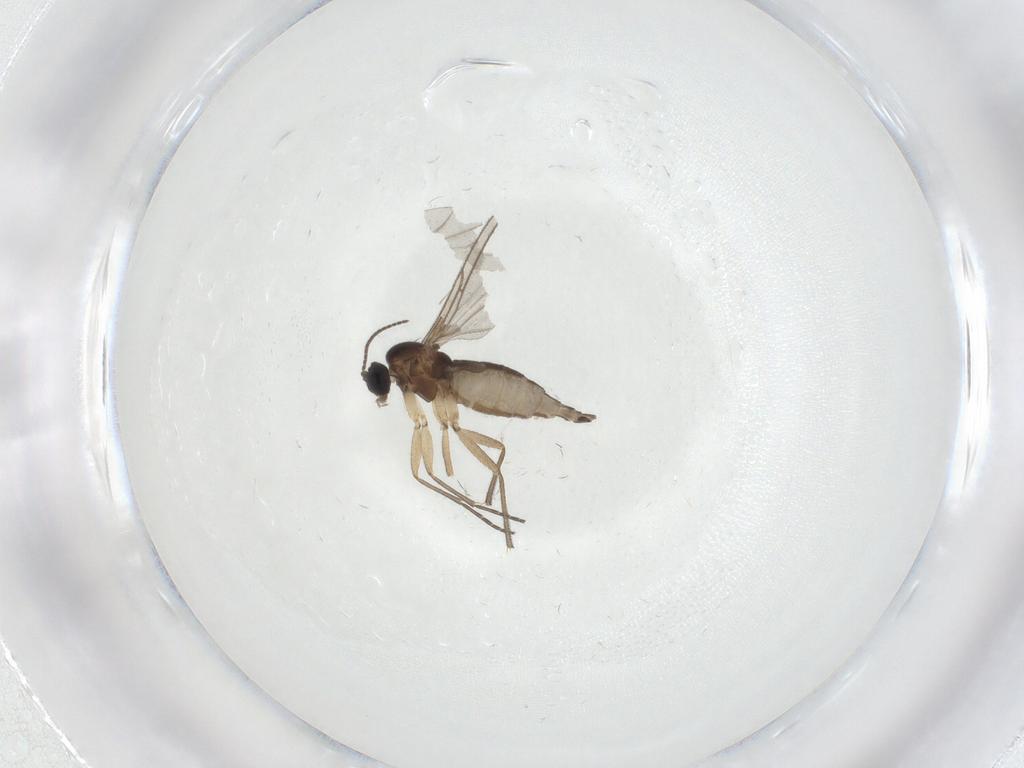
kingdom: Animalia
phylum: Arthropoda
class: Insecta
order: Diptera
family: Sciaridae
